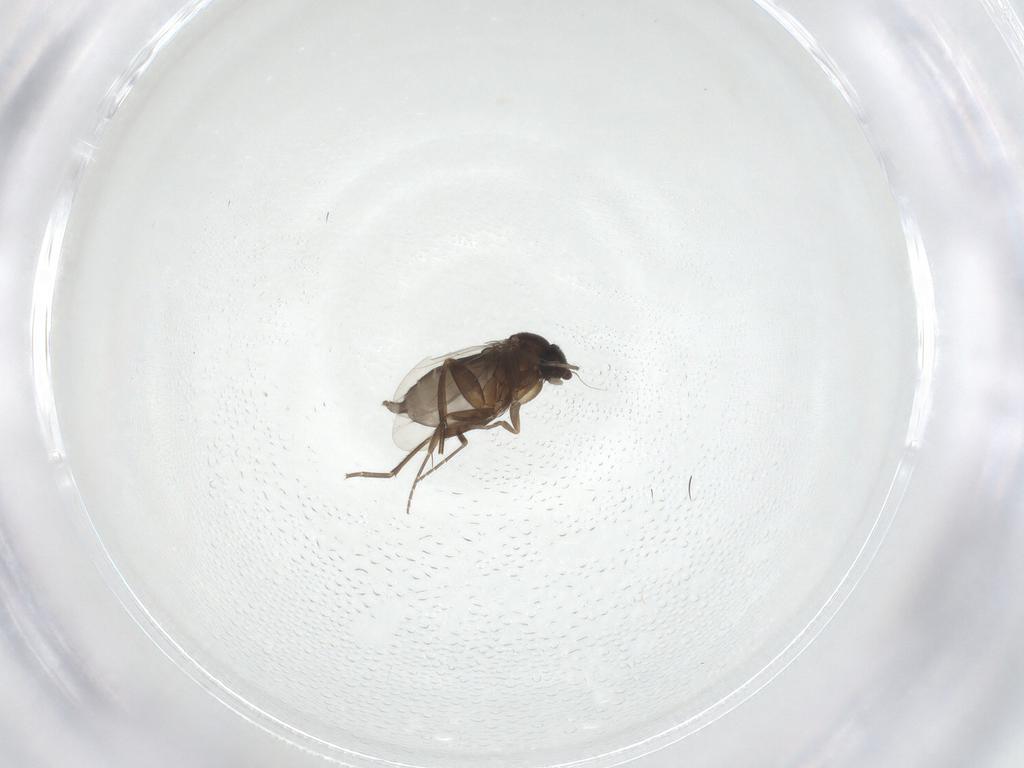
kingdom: Animalia
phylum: Arthropoda
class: Insecta
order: Diptera
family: Limoniidae
